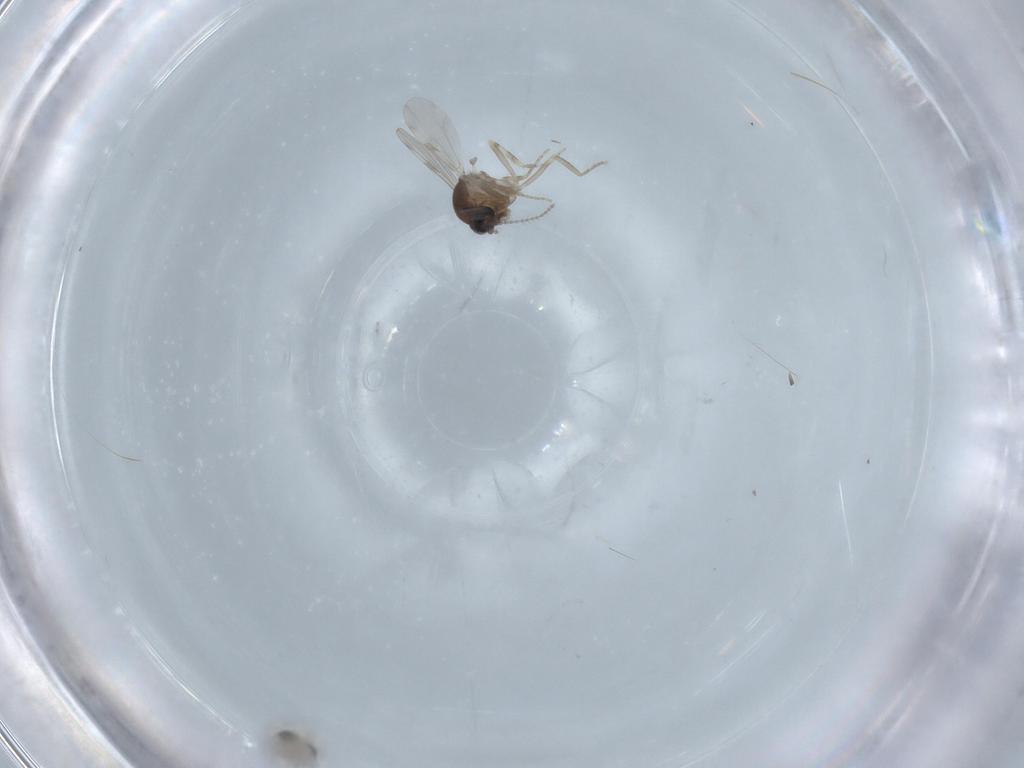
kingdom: Animalia
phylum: Arthropoda
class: Insecta
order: Diptera
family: Ceratopogonidae
